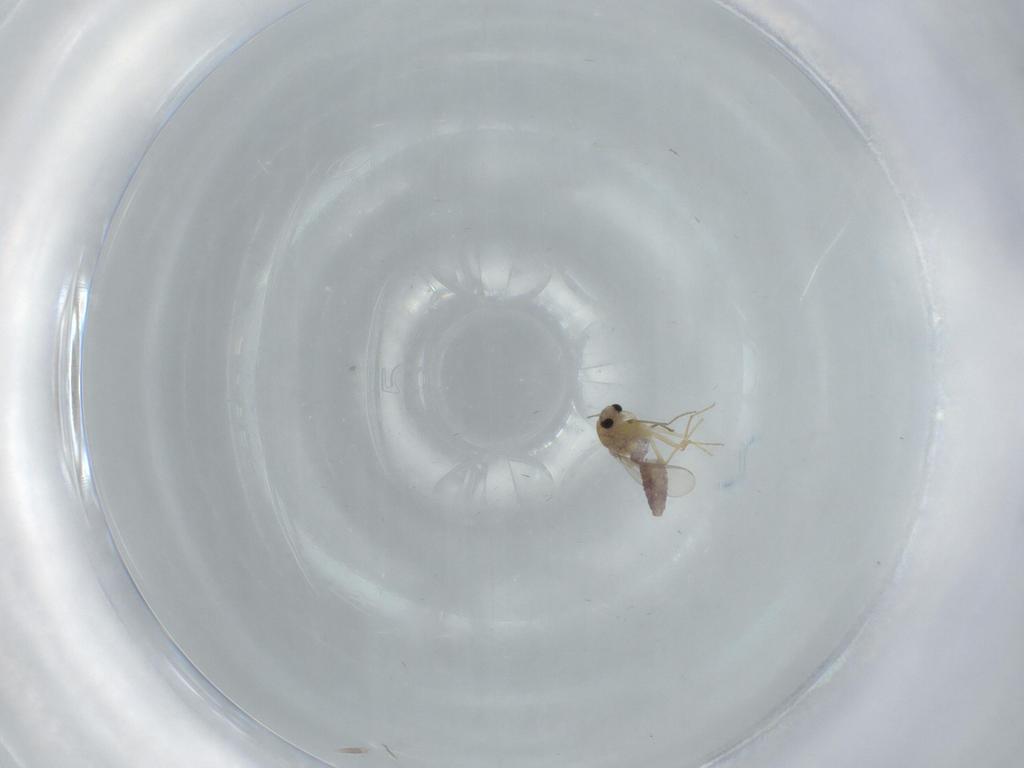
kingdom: Animalia
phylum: Arthropoda
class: Insecta
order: Diptera
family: Chironomidae
